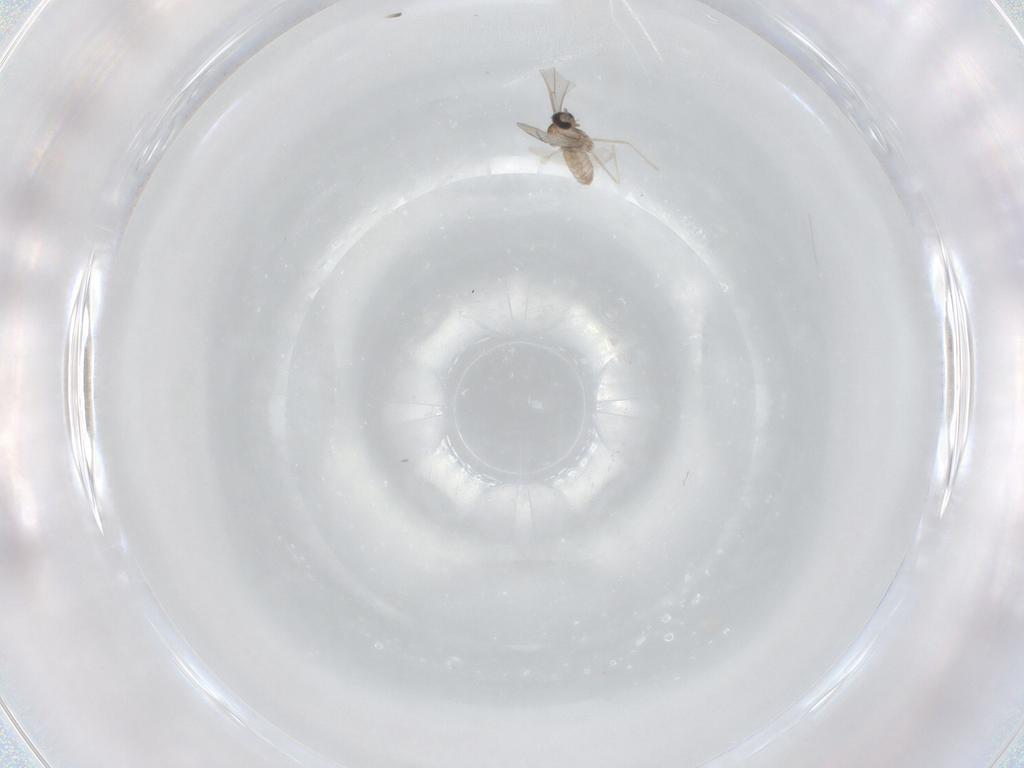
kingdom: Animalia
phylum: Arthropoda
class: Insecta
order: Diptera
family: Cecidomyiidae
